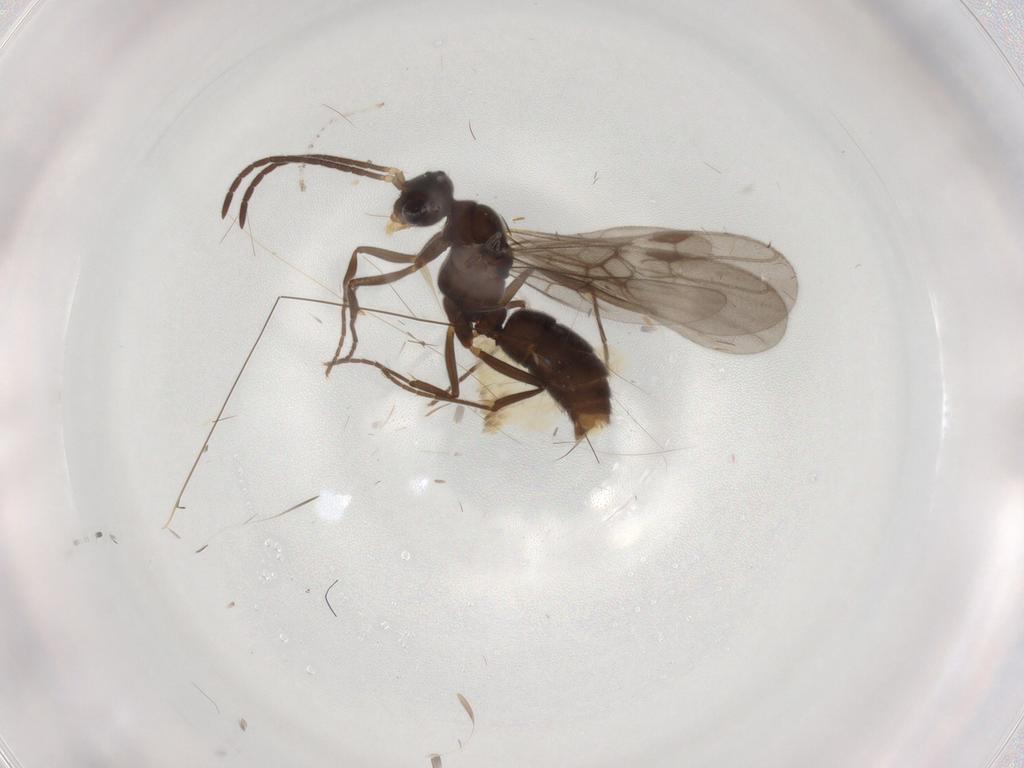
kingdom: Animalia
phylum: Arthropoda
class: Insecta
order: Hymenoptera
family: Formicidae
